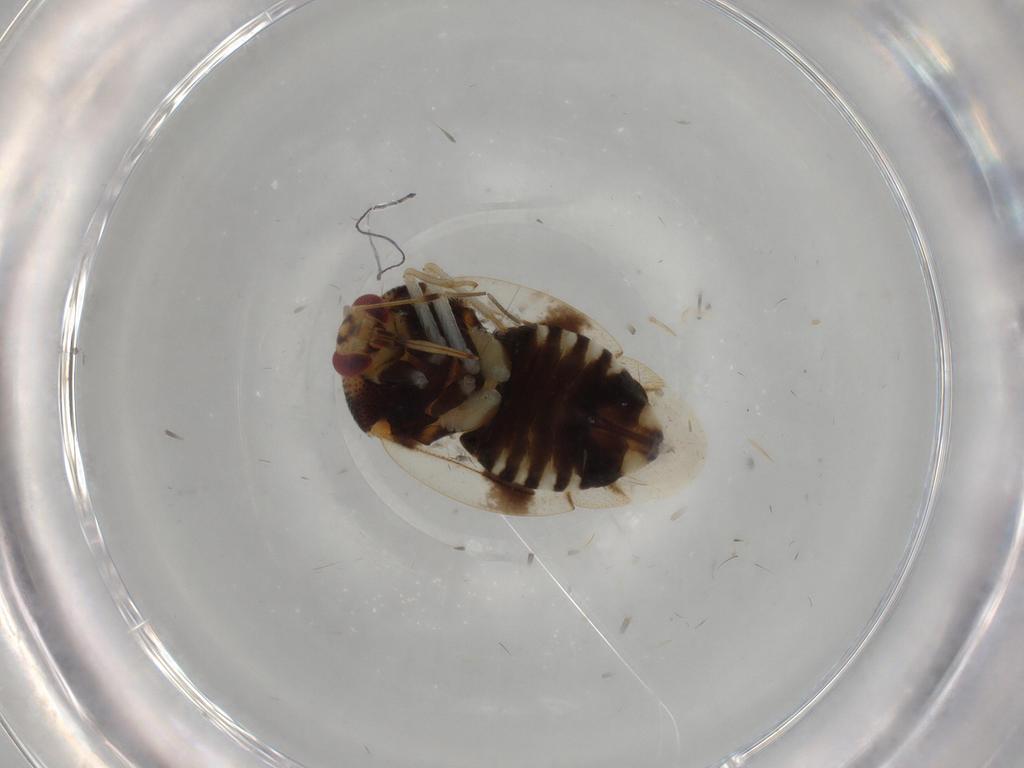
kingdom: Animalia
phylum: Arthropoda
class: Insecta
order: Hemiptera
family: Miridae
